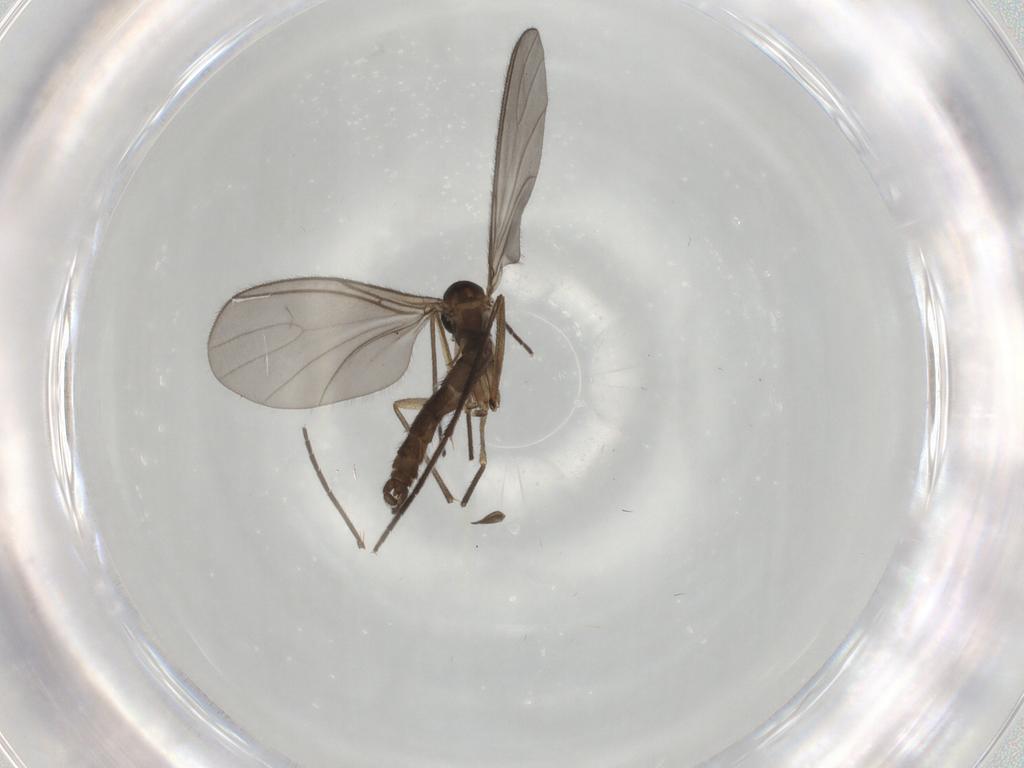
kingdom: Animalia
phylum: Arthropoda
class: Insecta
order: Diptera
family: Sciaridae
